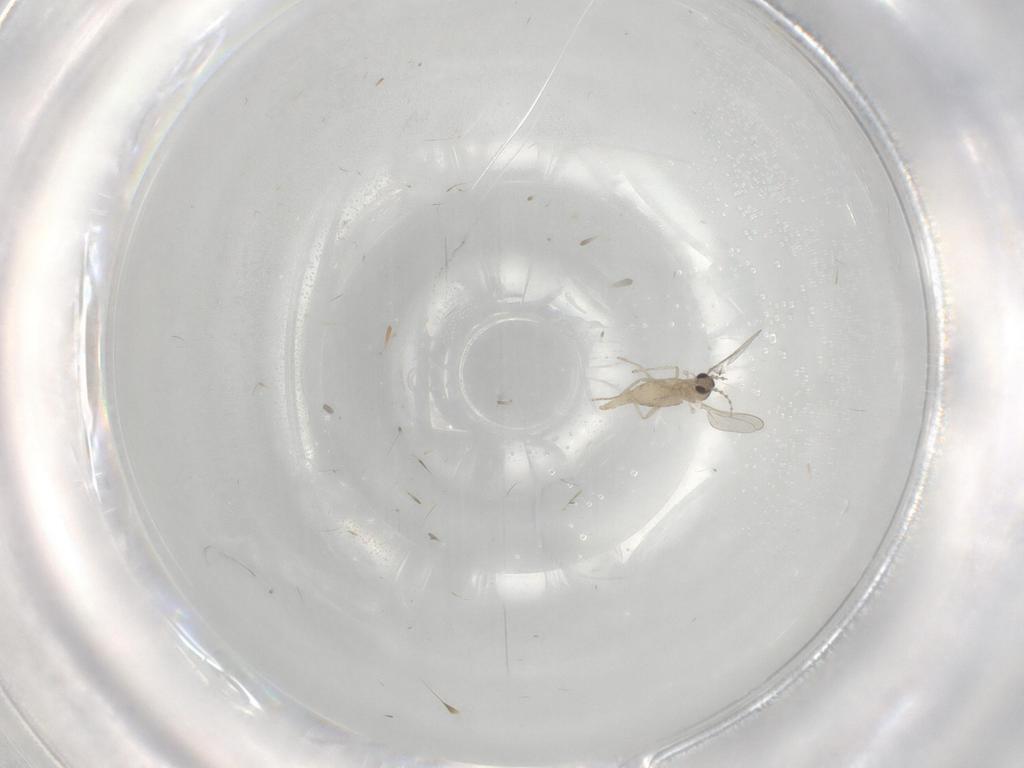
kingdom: Animalia
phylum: Arthropoda
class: Insecta
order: Diptera
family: Cecidomyiidae
